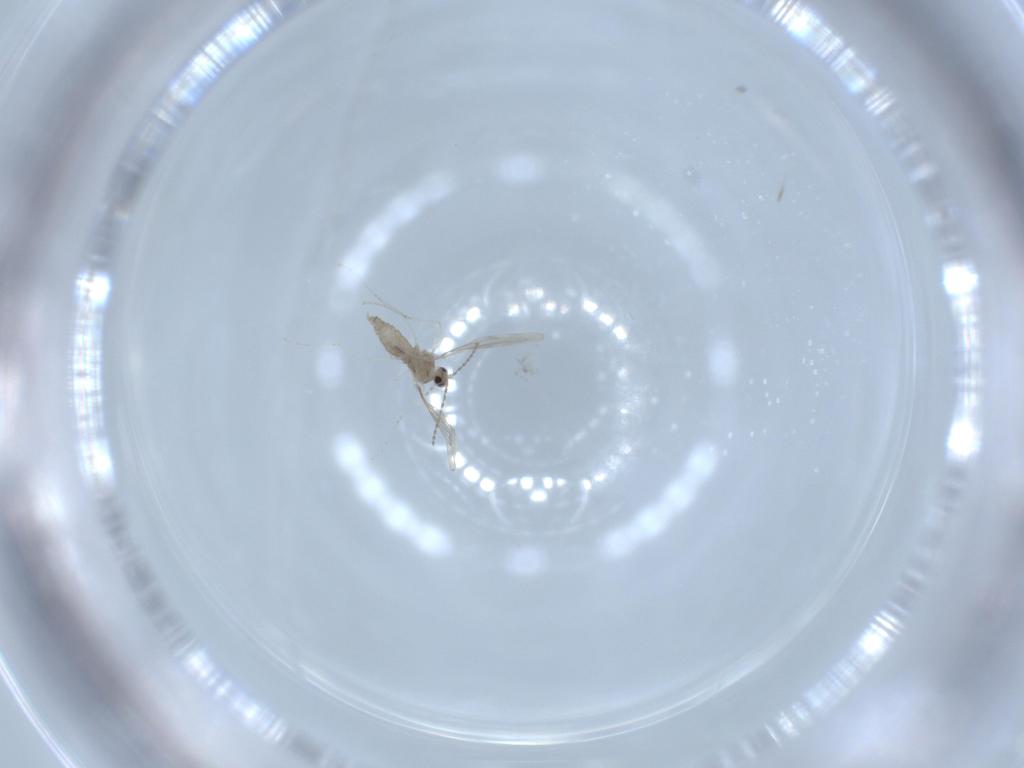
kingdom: Animalia
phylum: Arthropoda
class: Insecta
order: Diptera
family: Cecidomyiidae
